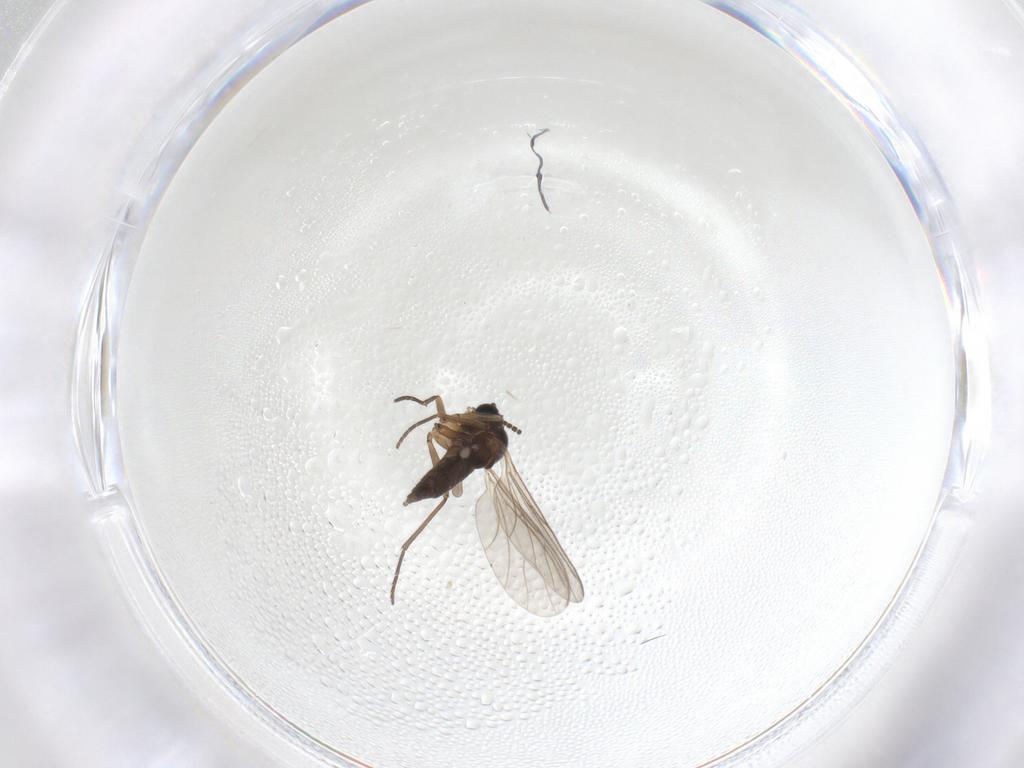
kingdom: Animalia
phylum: Arthropoda
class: Insecta
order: Diptera
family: Sciaridae
